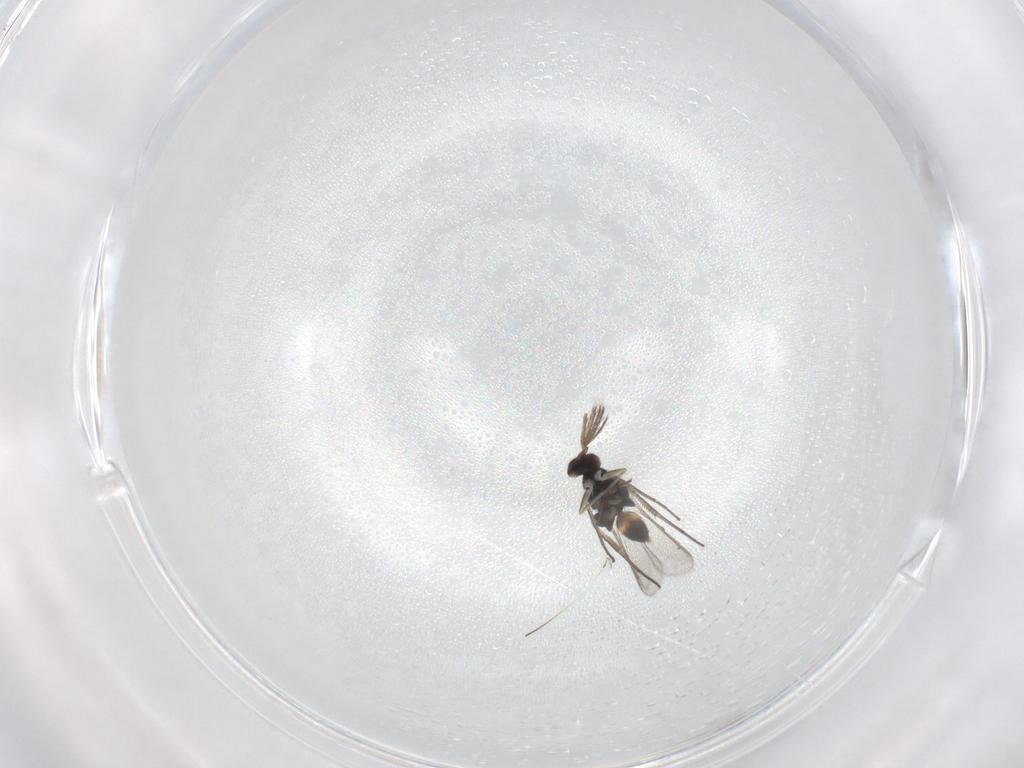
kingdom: Animalia
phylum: Arthropoda
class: Insecta
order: Hymenoptera
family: Eulophidae
